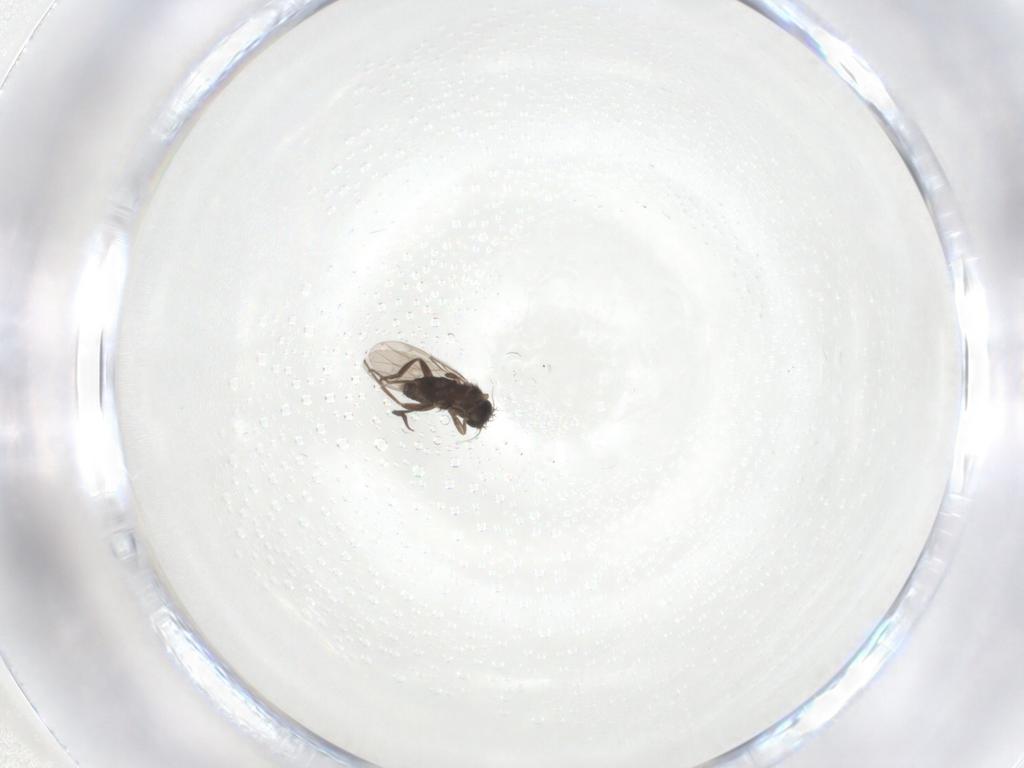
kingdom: Animalia
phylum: Arthropoda
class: Insecta
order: Diptera
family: Phoridae
